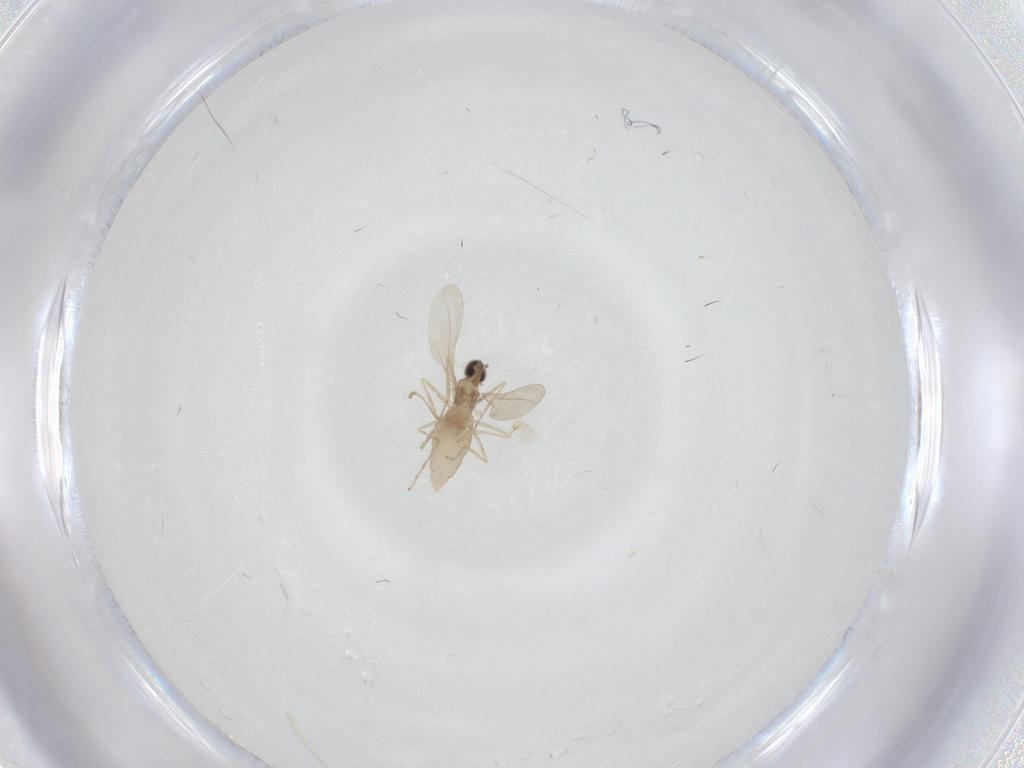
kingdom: Animalia
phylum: Arthropoda
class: Insecta
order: Diptera
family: Cecidomyiidae
